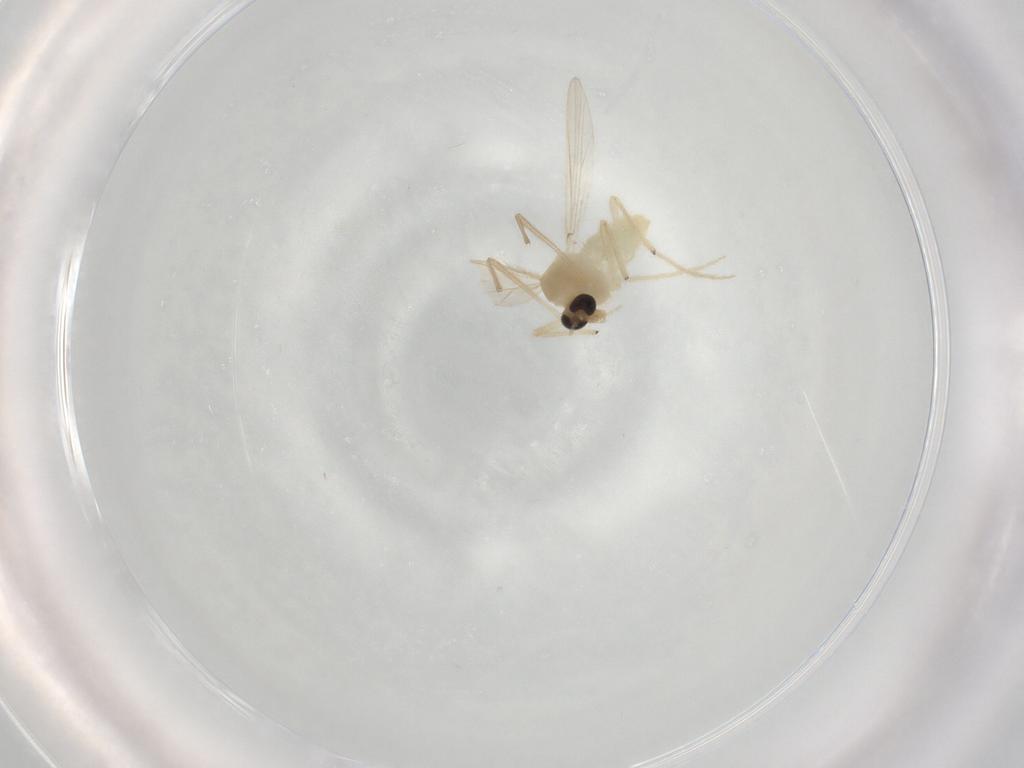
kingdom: Animalia
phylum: Arthropoda
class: Insecta
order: Diptera
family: Chironomidae
